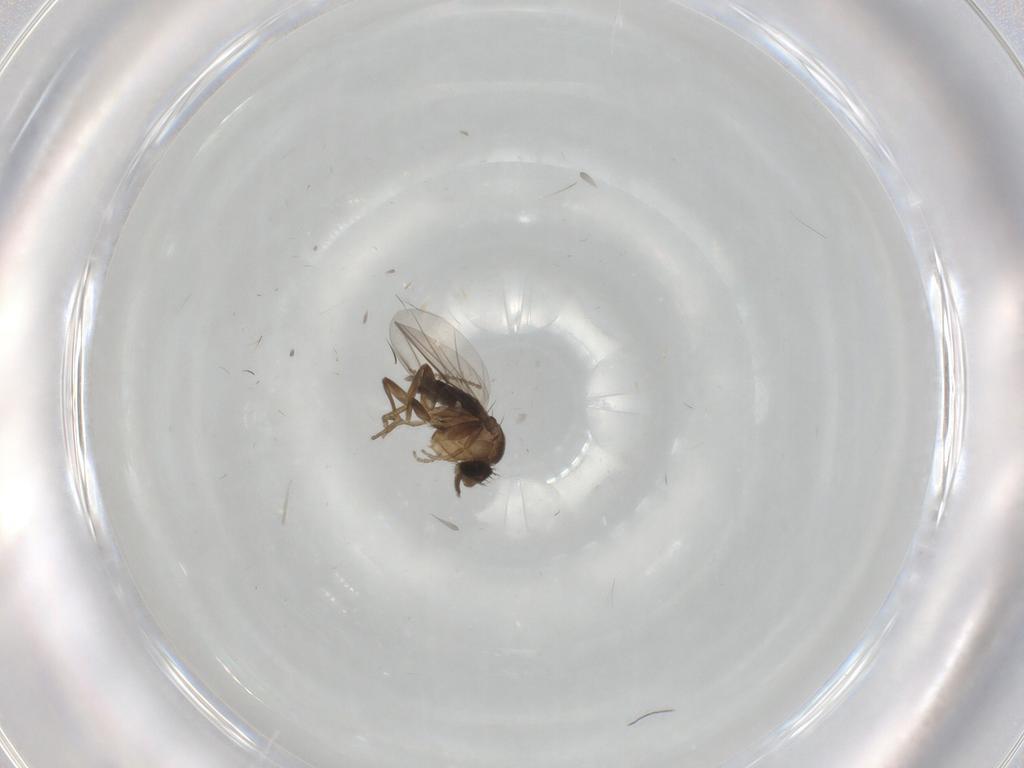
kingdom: Animalia
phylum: Arthropoda
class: Insecta
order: Diptera
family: Phoridae
